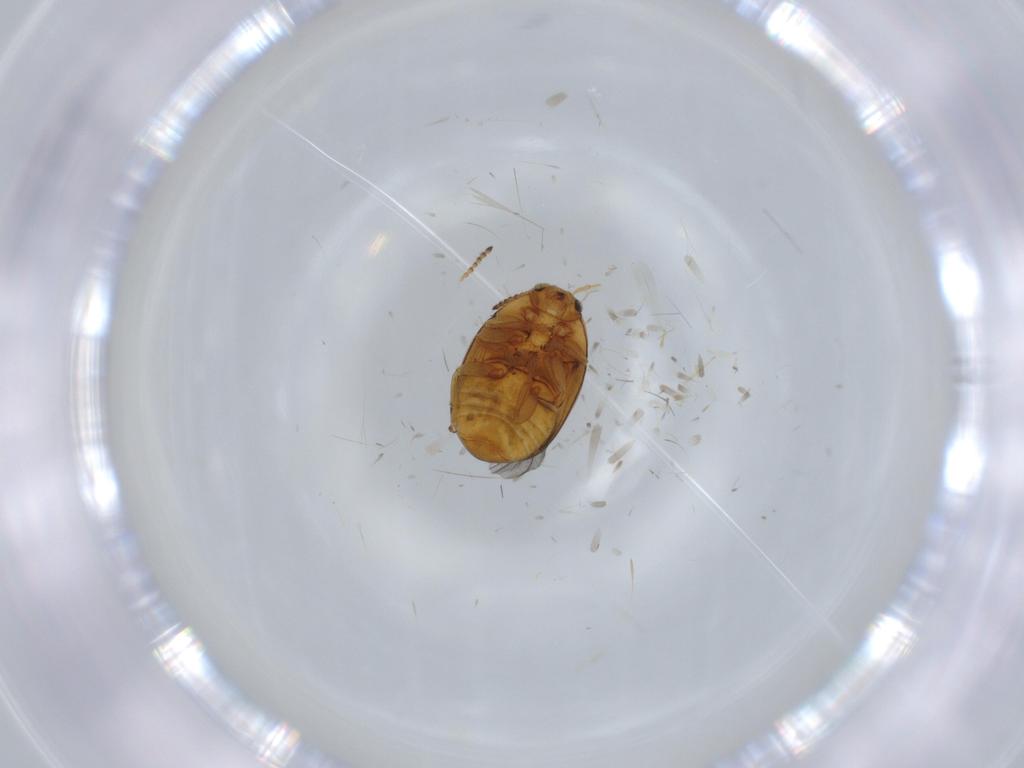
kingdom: Animalia
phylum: Arthropoda
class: Insecta
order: Coleoptera
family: Chrysomelidae
